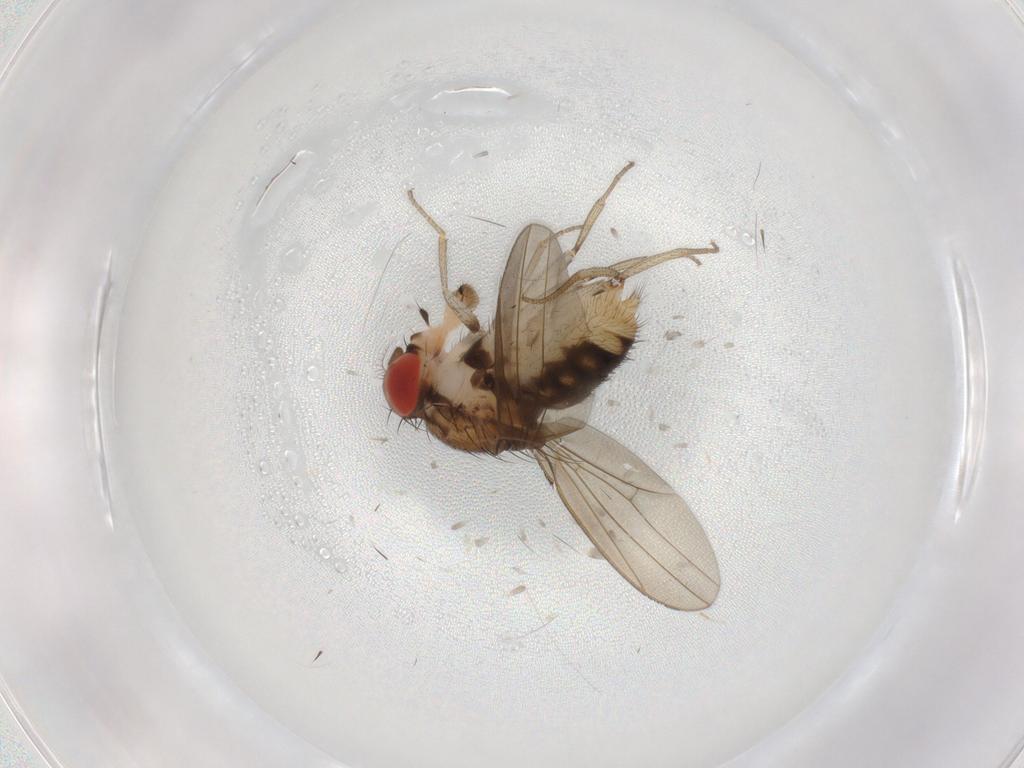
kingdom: Animalia
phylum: Arthropoda
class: Insecta
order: Diptera
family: Drosophilidae
